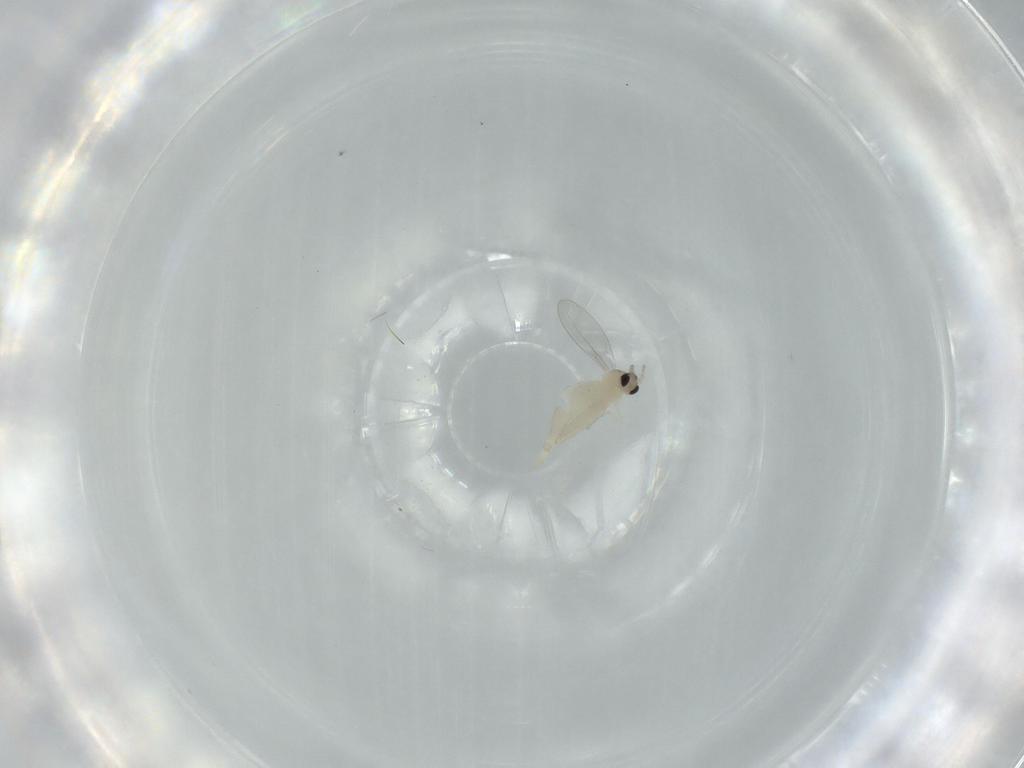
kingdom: Animalia
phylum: Arthropoda
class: Insecta
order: Diptera
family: Cecidomyiidae
